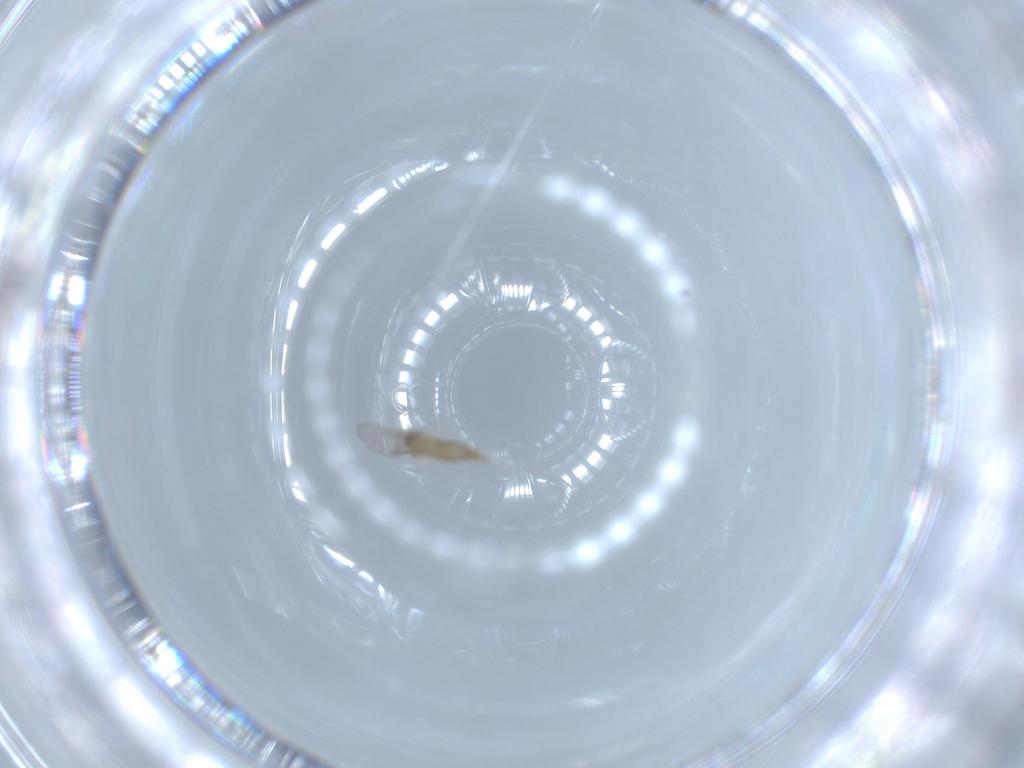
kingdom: Animalia
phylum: Arthropoda
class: Insecta
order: Diptera
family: Cecidomyiidae
